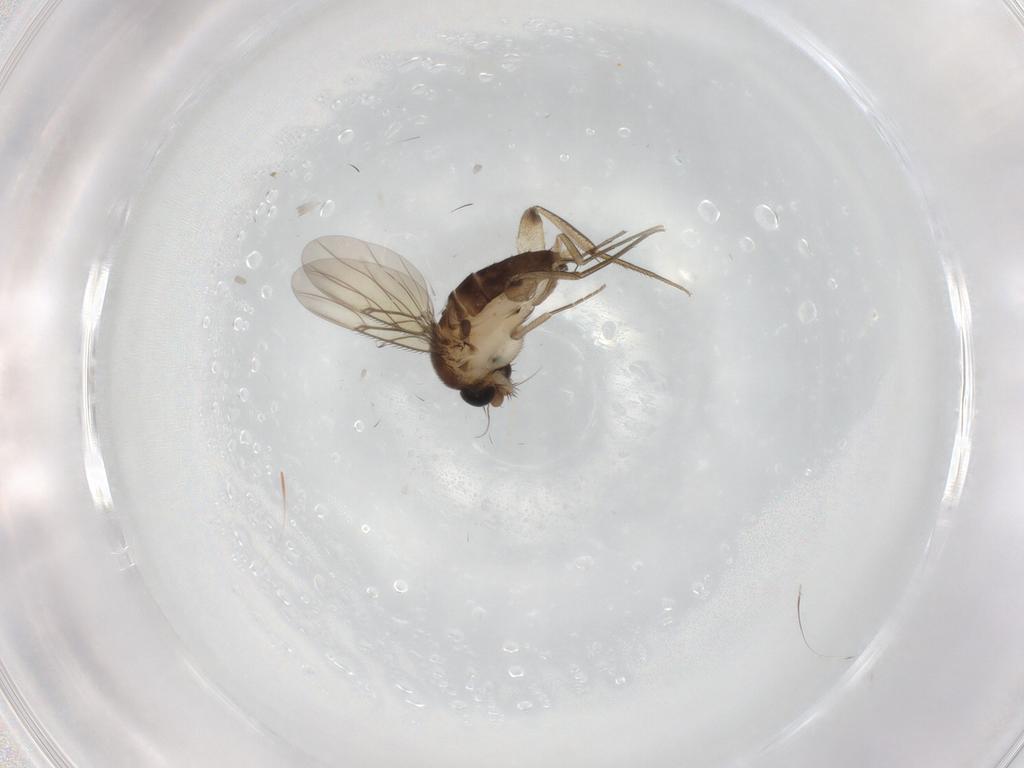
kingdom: Animalia
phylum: Arthropoda
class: Insecta
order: Diptera
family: Phoridae
